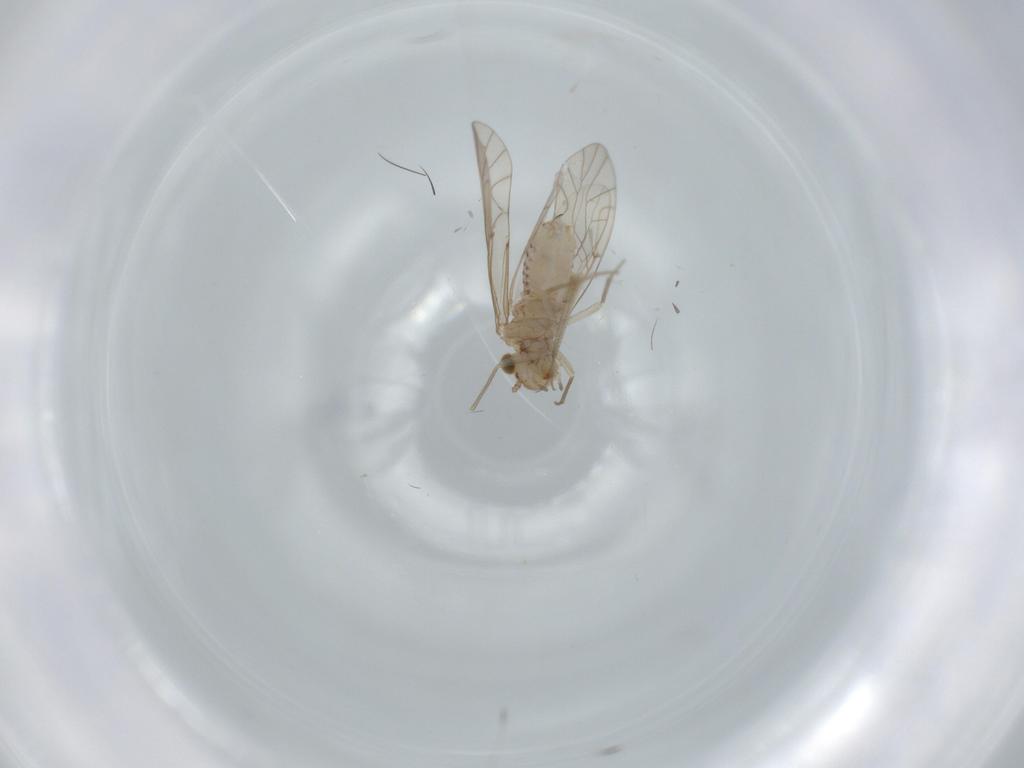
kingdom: Animalia
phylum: Arthropoda
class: Insecta
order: Psocodea
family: Lachesillidae
